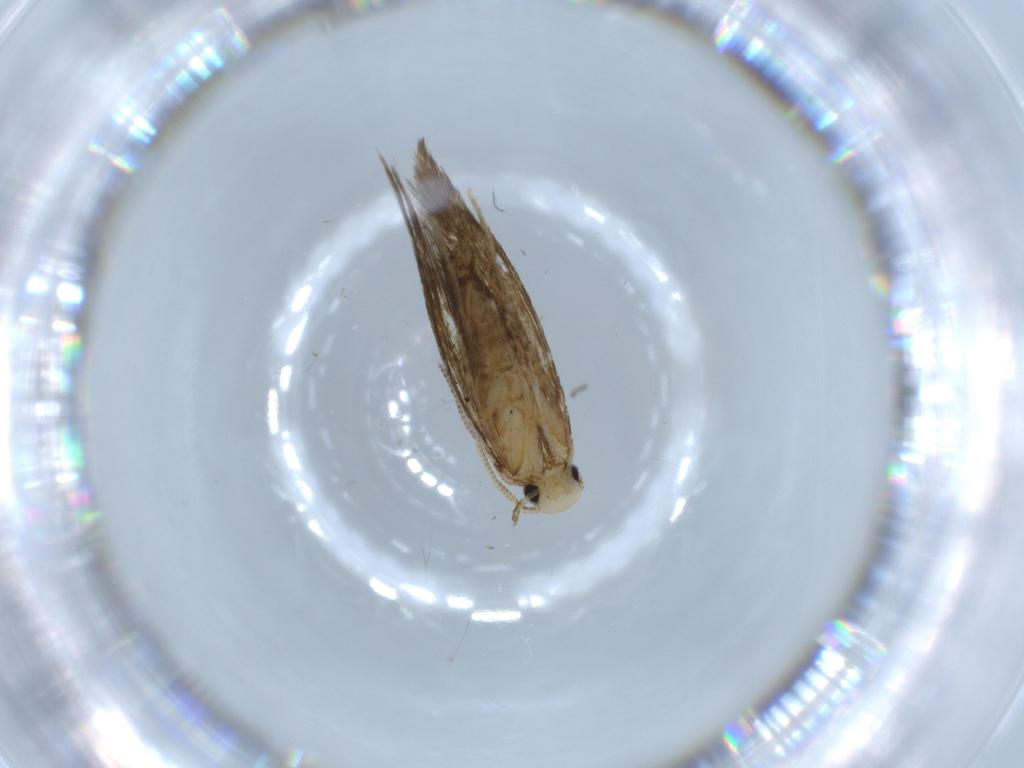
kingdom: Animalia
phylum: Arthropoda
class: Insecta
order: Lepidoptera
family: Tineidae
